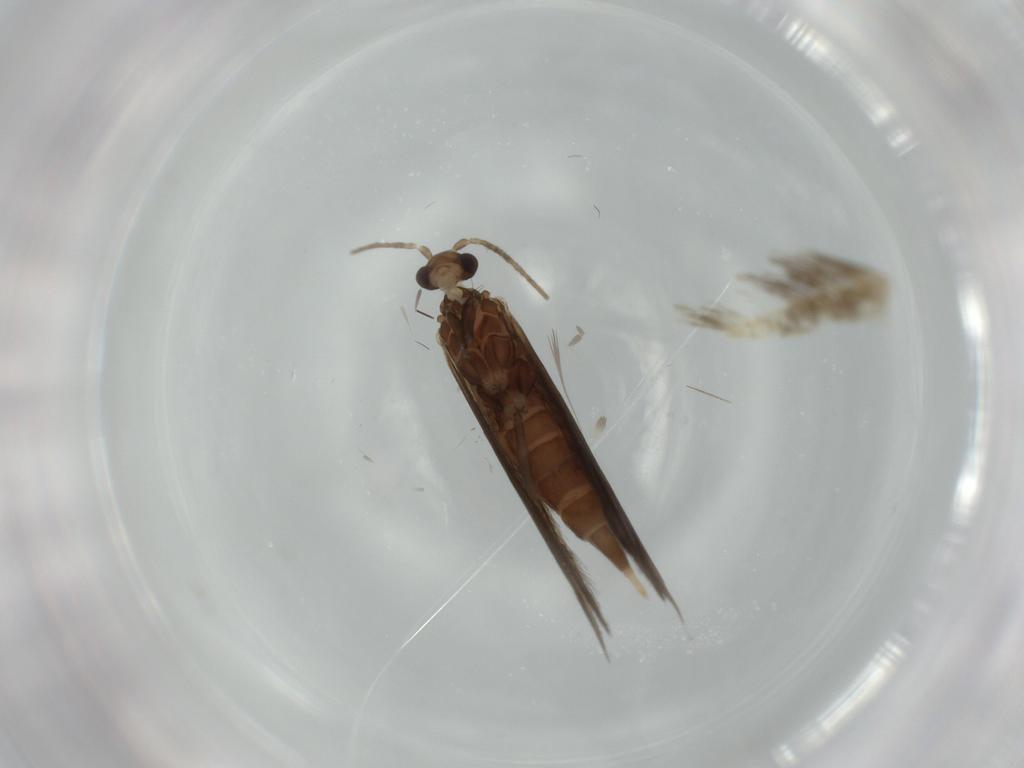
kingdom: Animalia
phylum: Arthropoda
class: Insecta
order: Trichoptera
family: Xiphocentronidae
